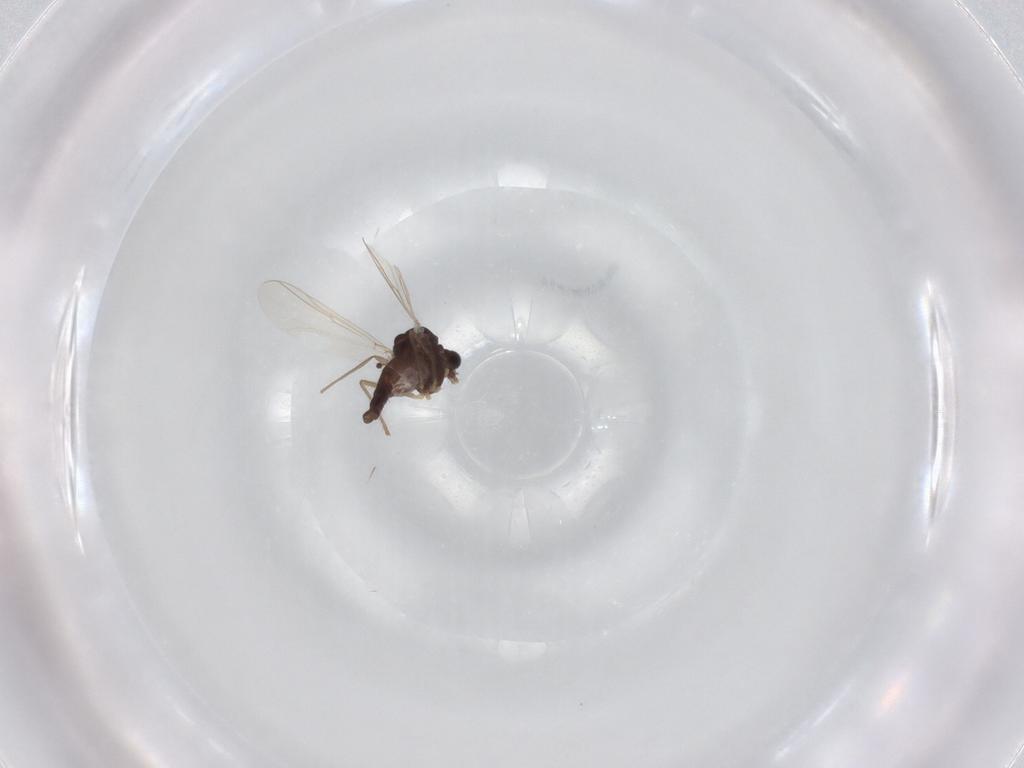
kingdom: Animalia
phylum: Arthropoda
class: Insecta
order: Diptera
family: Chironomidae
